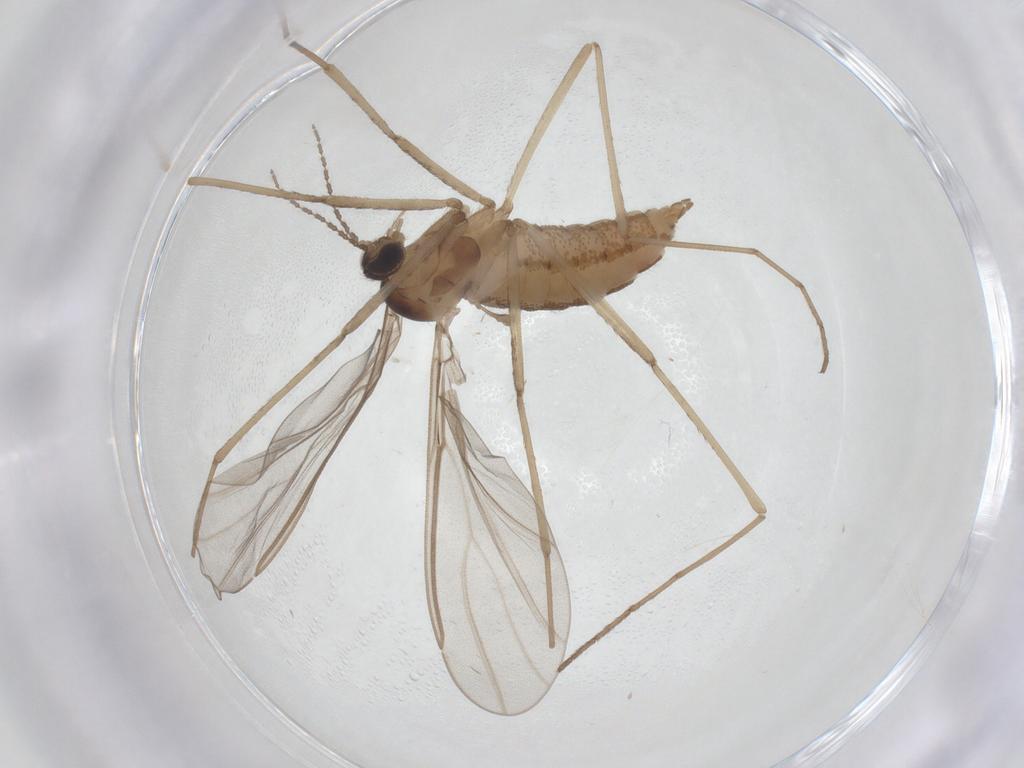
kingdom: Animalia
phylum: Arthropoda
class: Insecta
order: Diptera
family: Cecidomyiidae
